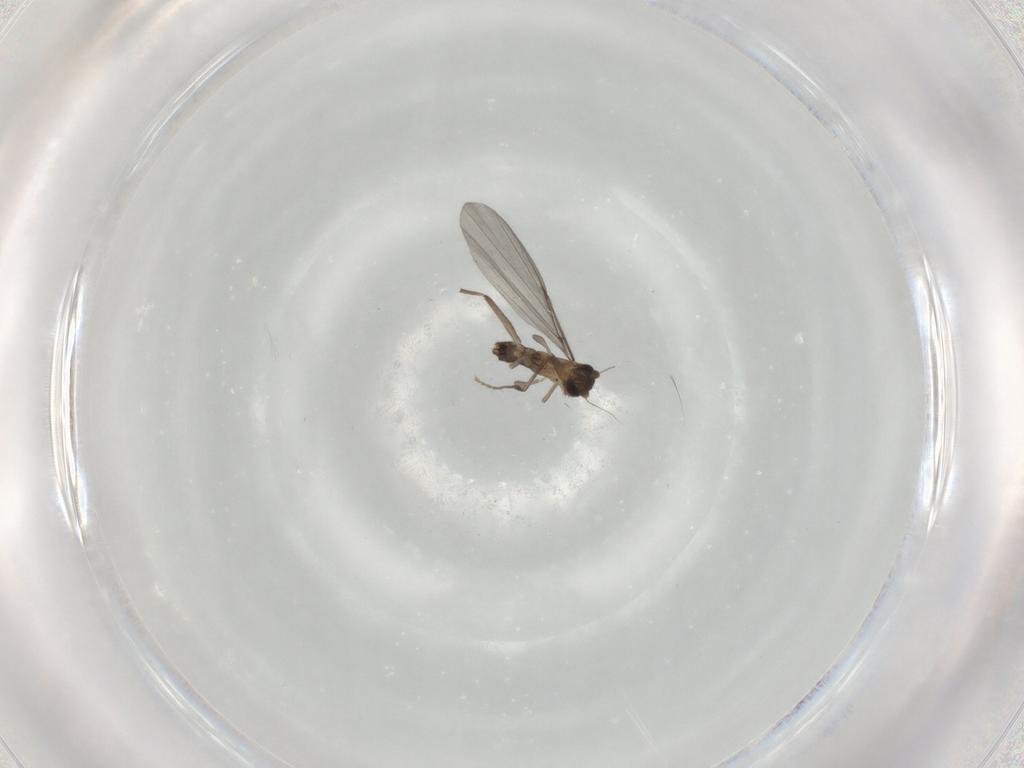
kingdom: Animalia
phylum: Arthropoda
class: Insecta
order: Diptera
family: Phoridae
